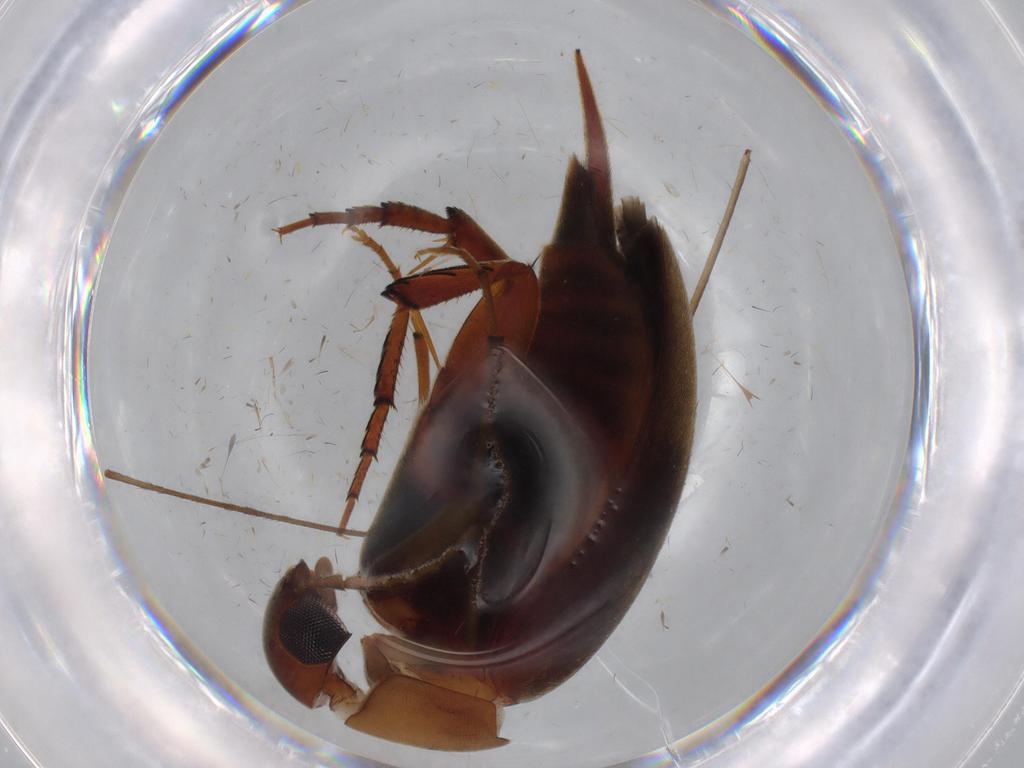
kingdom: Animalia
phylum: Arthropoda
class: Insecta
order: Coleoptera
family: Mordellidae
